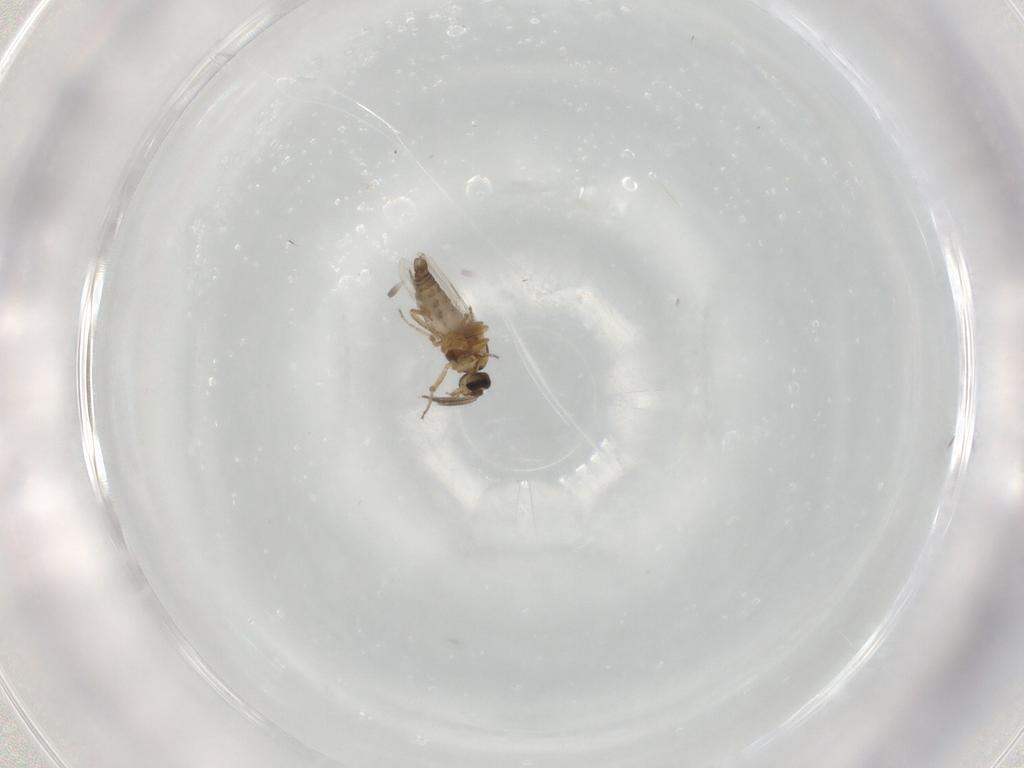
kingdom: Animalia
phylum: Arthropoda
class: Insecta
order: Diptera
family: Ceratopogonidae
